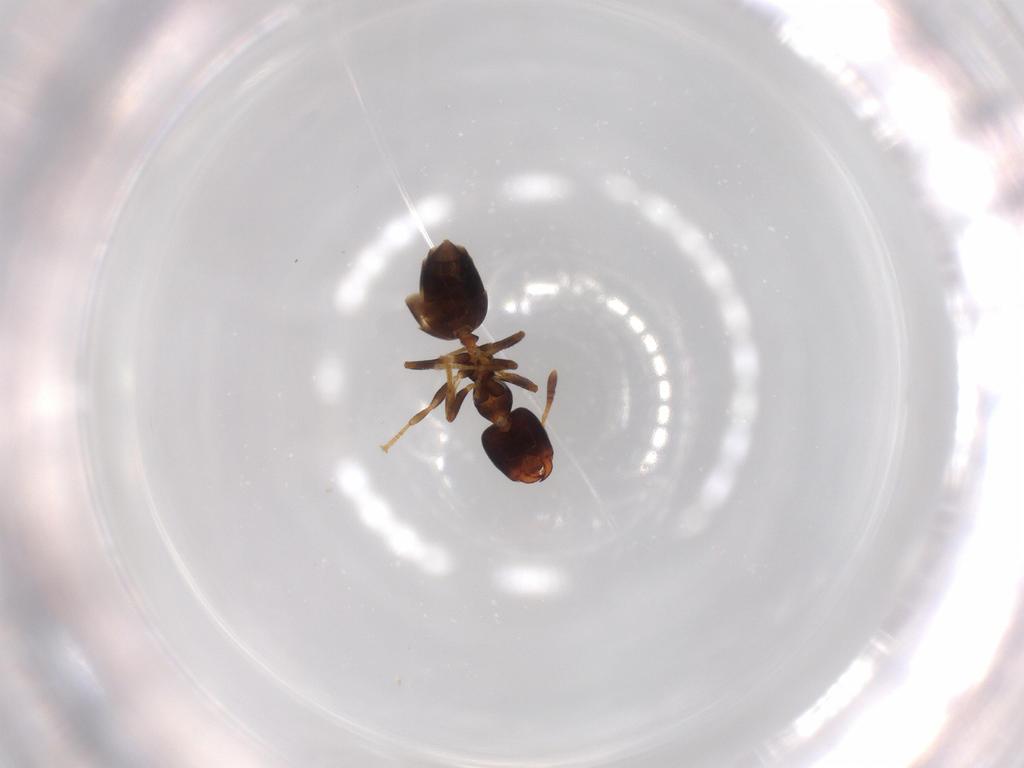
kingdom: Animalia
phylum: Arthropoda
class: Insecta
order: Hymenoptera
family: Formicidae
